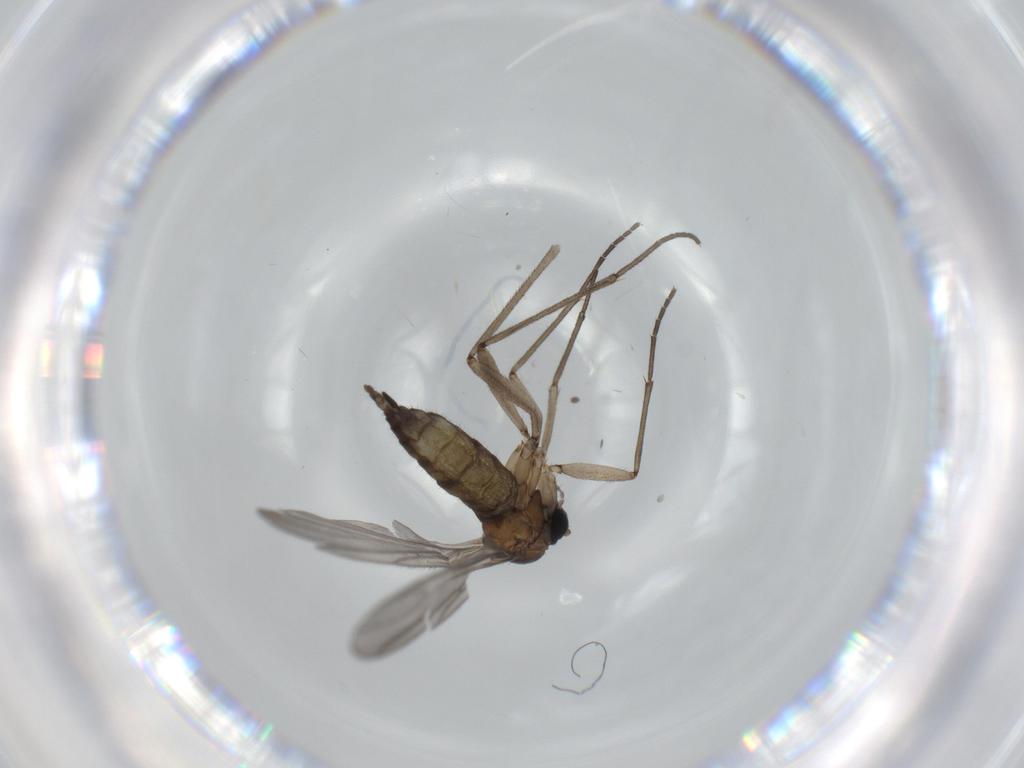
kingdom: Animalia
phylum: Arthropoda
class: Insecta
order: Diptera
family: Sciaridae
